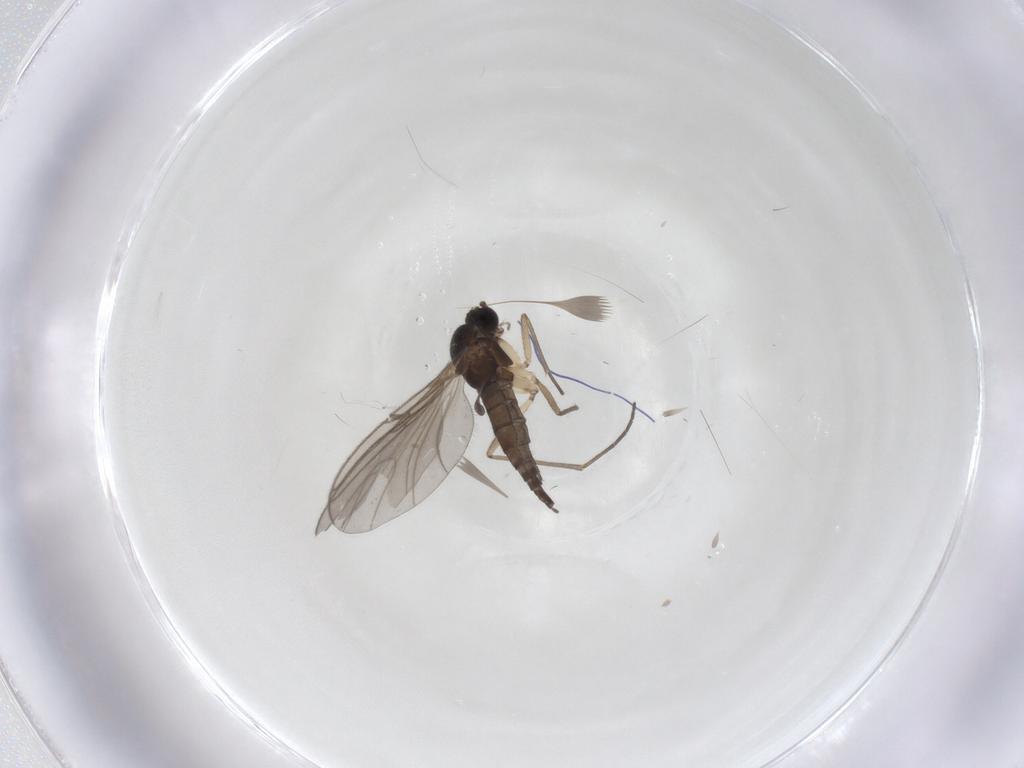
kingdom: Animalia
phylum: Arthropoda
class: Insecta
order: Diptera
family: Sciaridae
